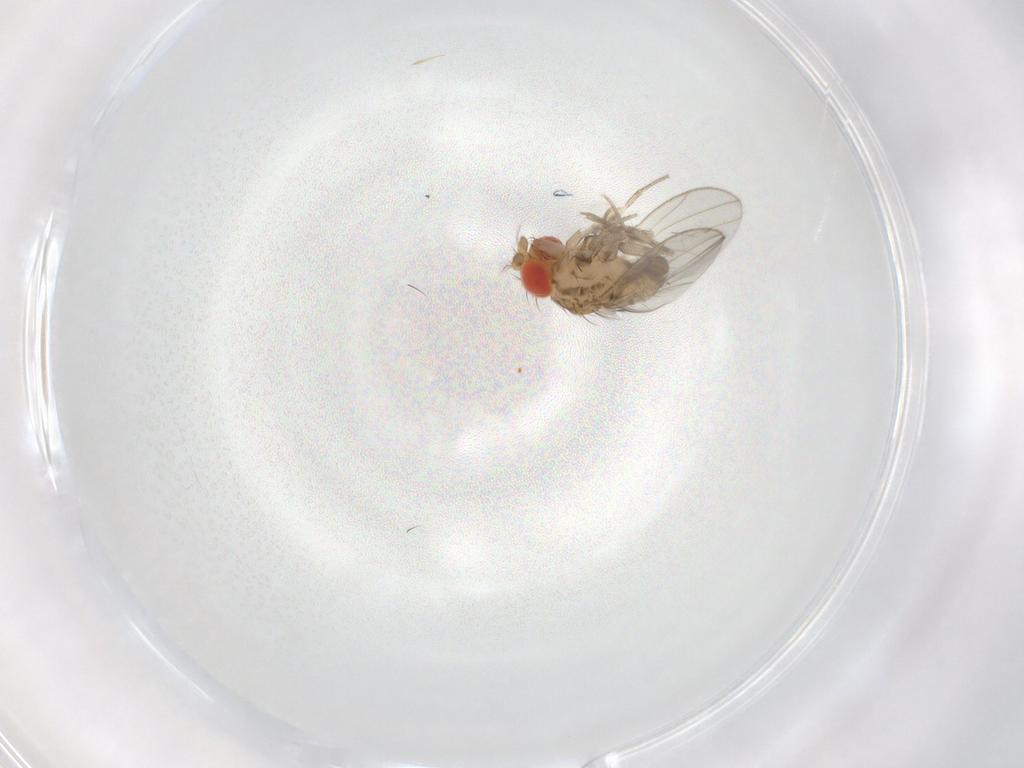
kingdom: Animalia
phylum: Arthropoda
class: Insecta
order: Diptera
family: Drosophilidae
